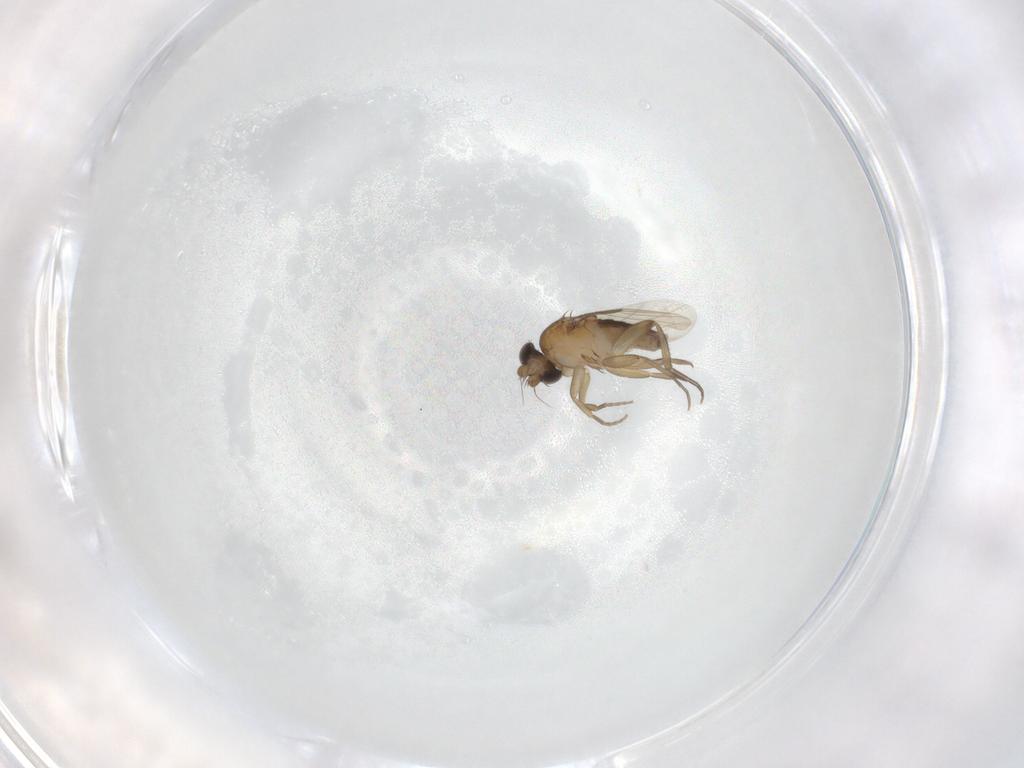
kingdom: Animalia
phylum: Arthropoda
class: Insecta
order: Diptera
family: Phoridae
